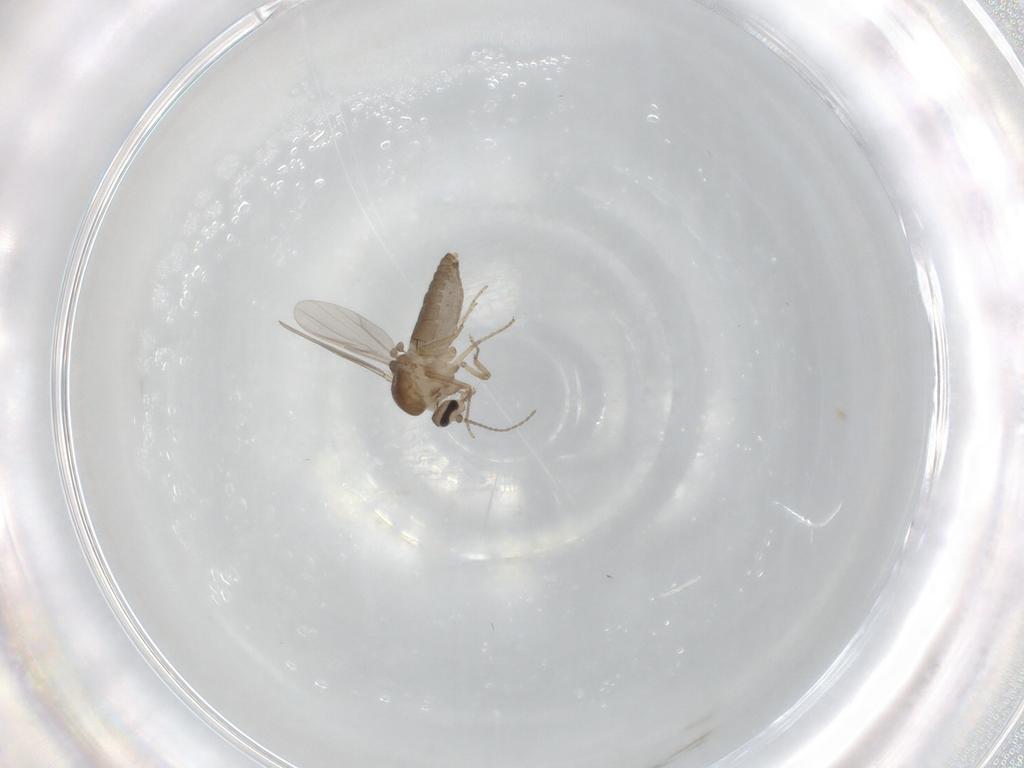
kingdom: Animalia
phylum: Arthropoda
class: Insecta
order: Diptera
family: Ceratopogonidae
